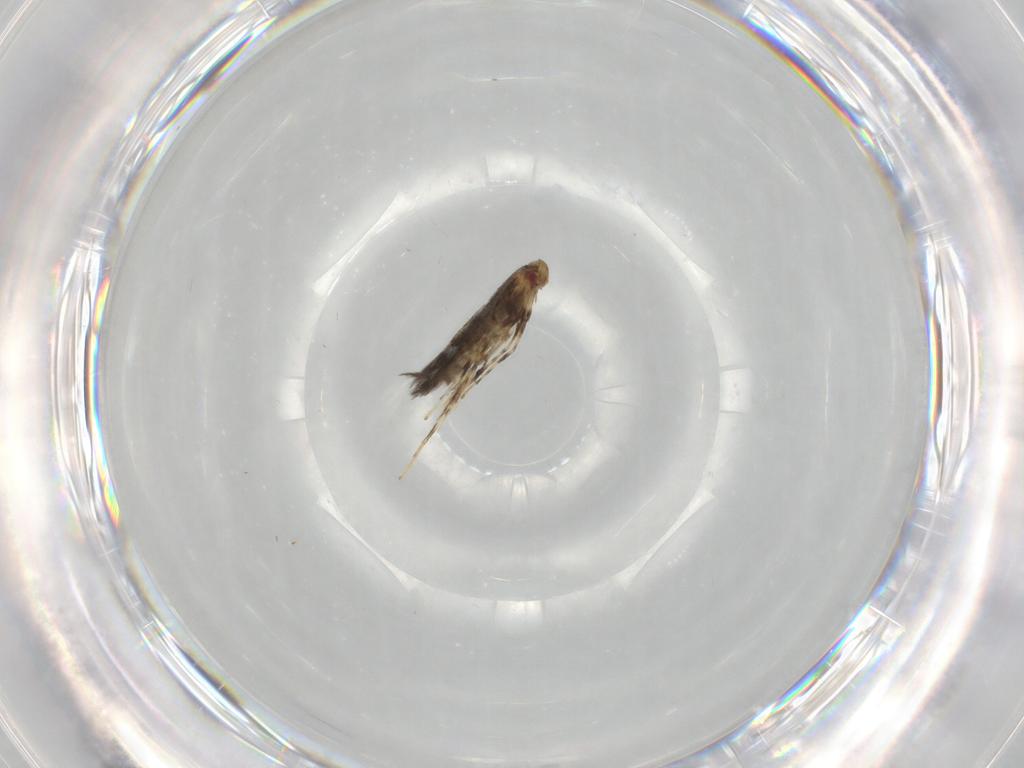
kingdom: Animalia
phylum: Arthropoda
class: Insecta
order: Lepidoptera
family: Gracillariidae
